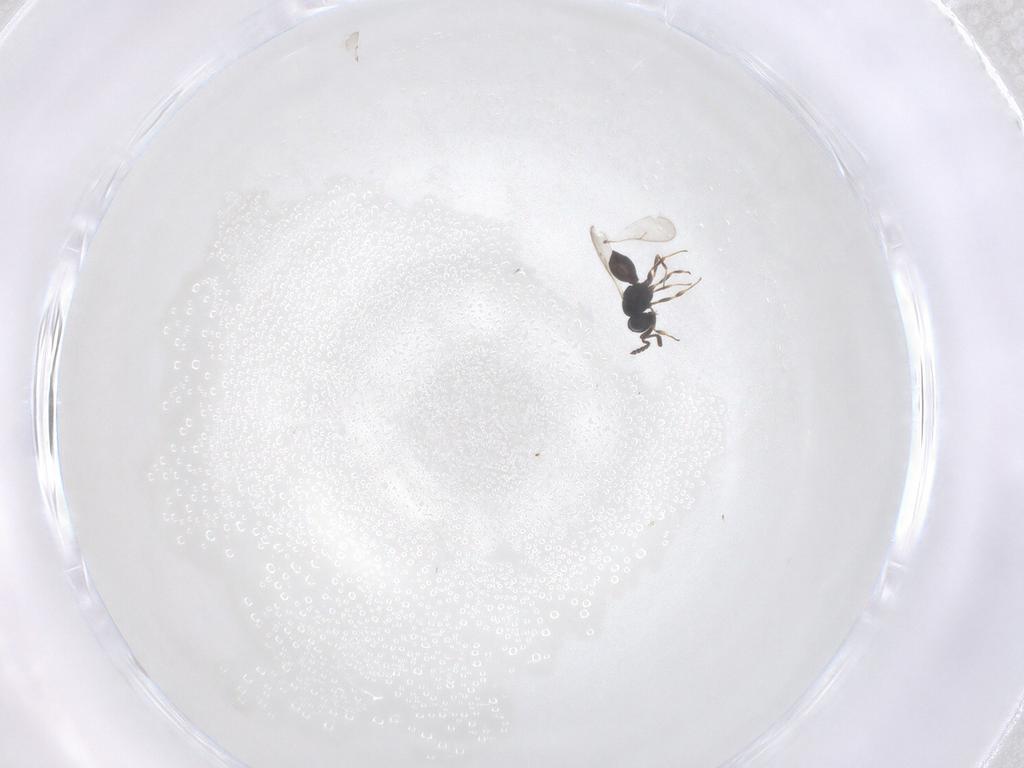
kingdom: Animalia
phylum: Arthropoda
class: Insecta
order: Hymenoptera
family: Scelionidae
